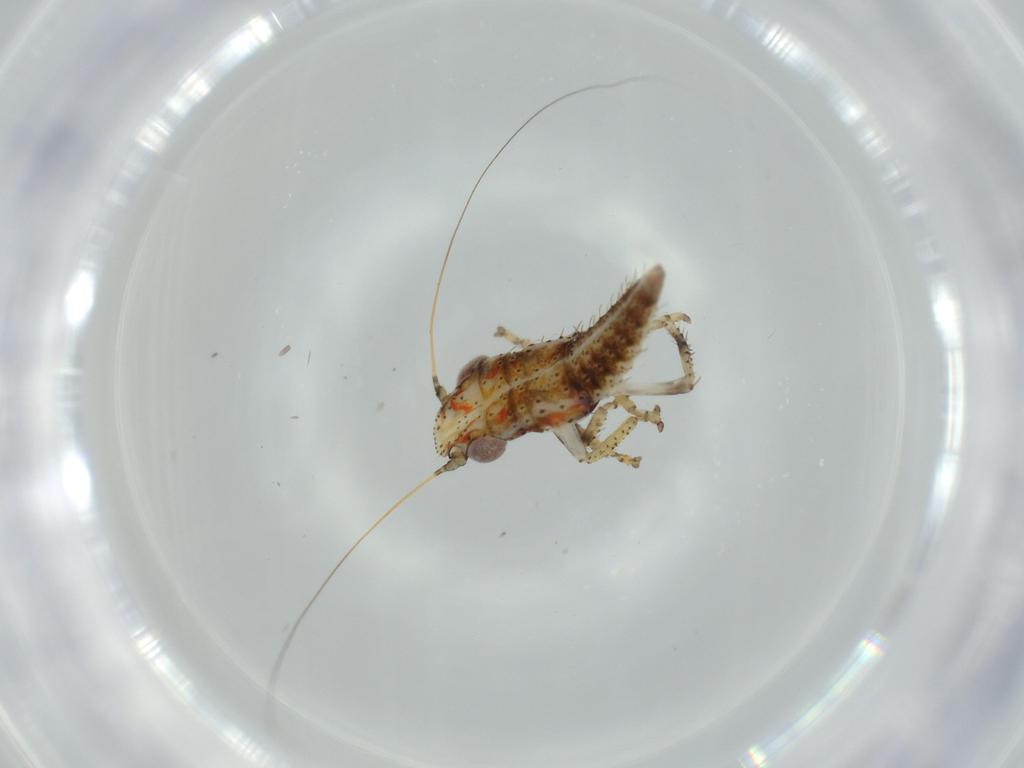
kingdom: Animalia
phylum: Arthropoda
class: Insecta
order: Hemiptera
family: Cicadellidae
